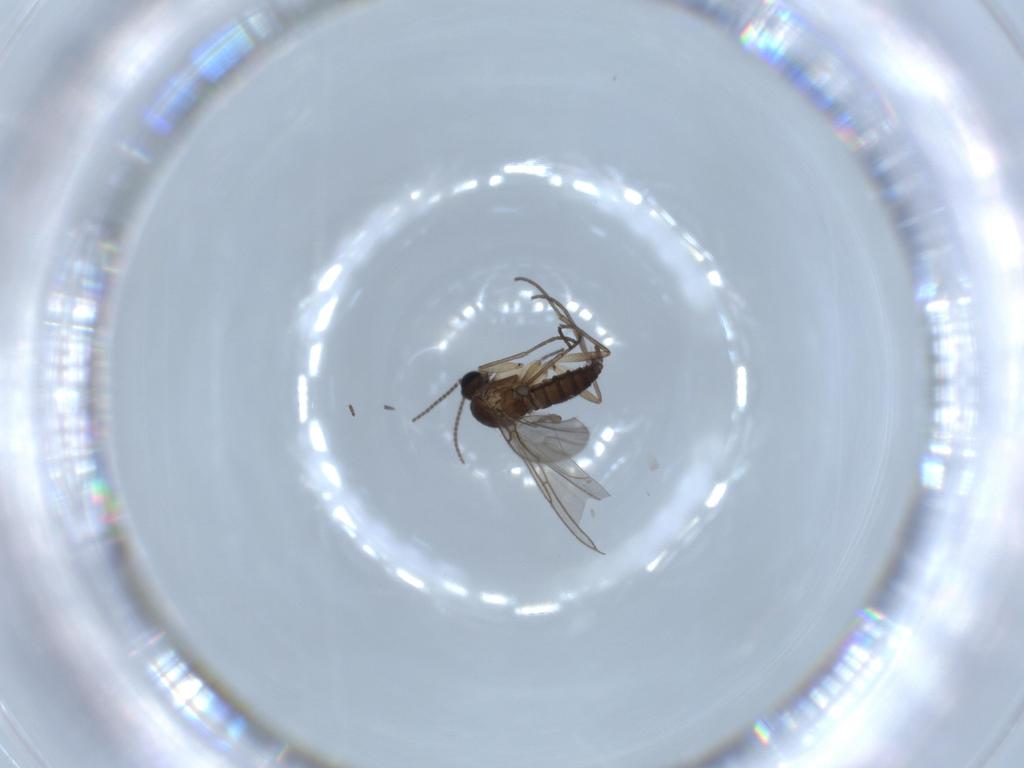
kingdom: Animalia
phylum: Arthropoda
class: Insecta
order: Diptera
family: Sciaridae
